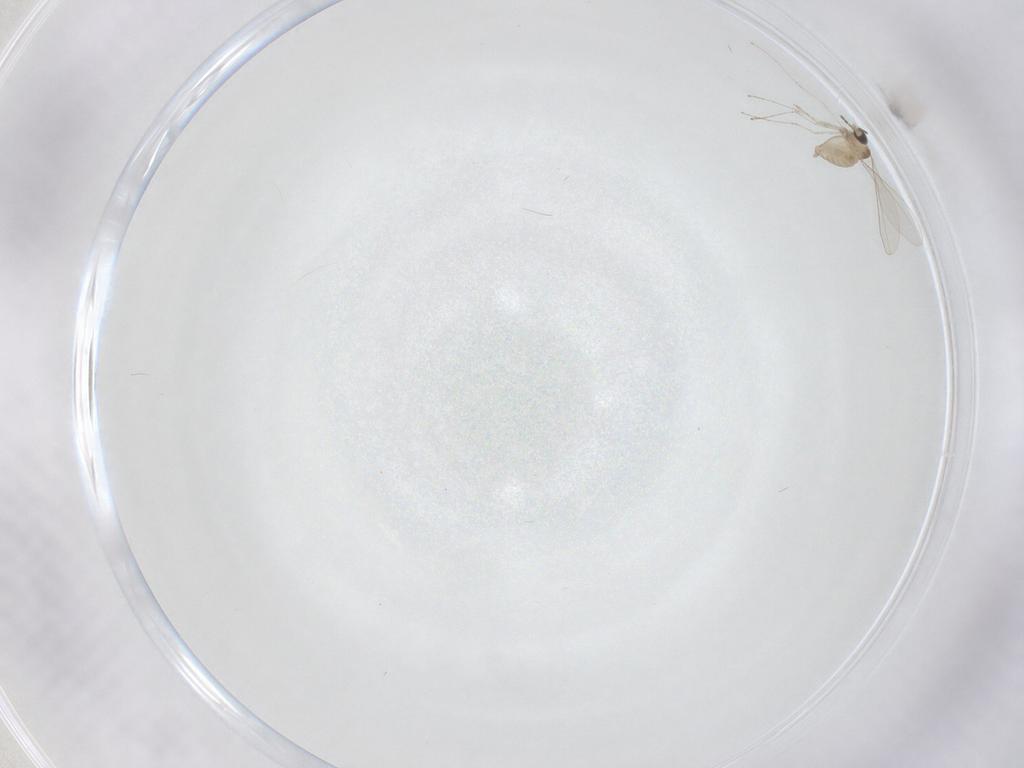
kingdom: Animalia
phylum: Arthropoda
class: Insecta
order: Diptera
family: Cecidomyiidae
